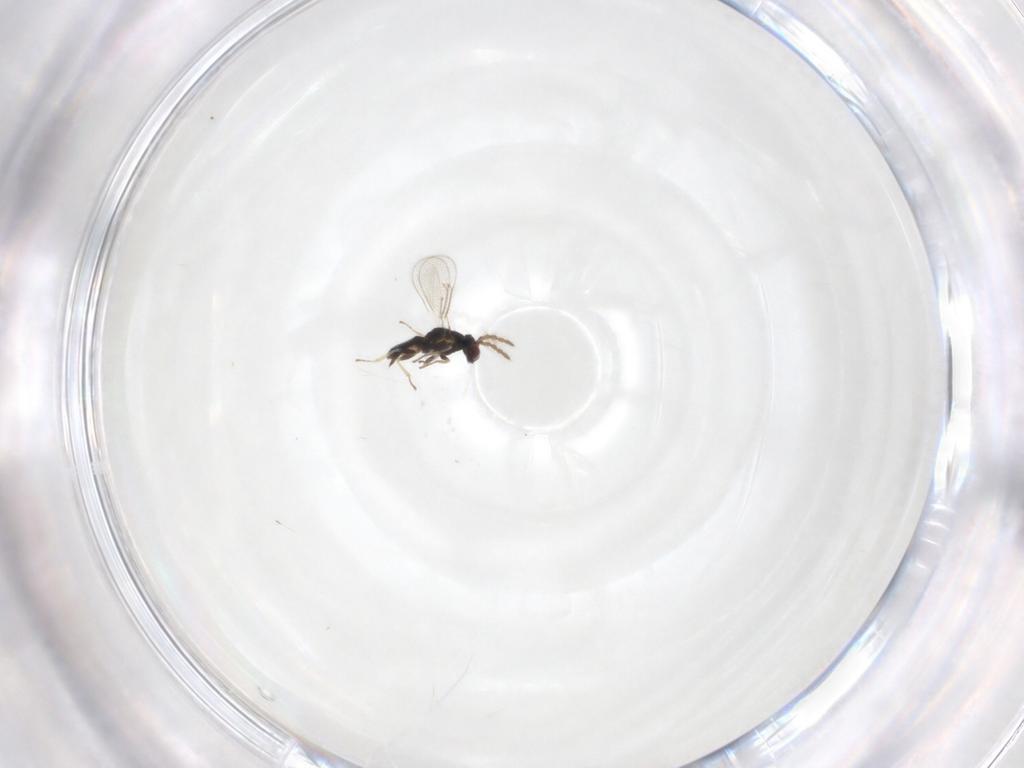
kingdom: Animalia
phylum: Arthropoda
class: Insecta
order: Hymenoptera
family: Eulophidae
